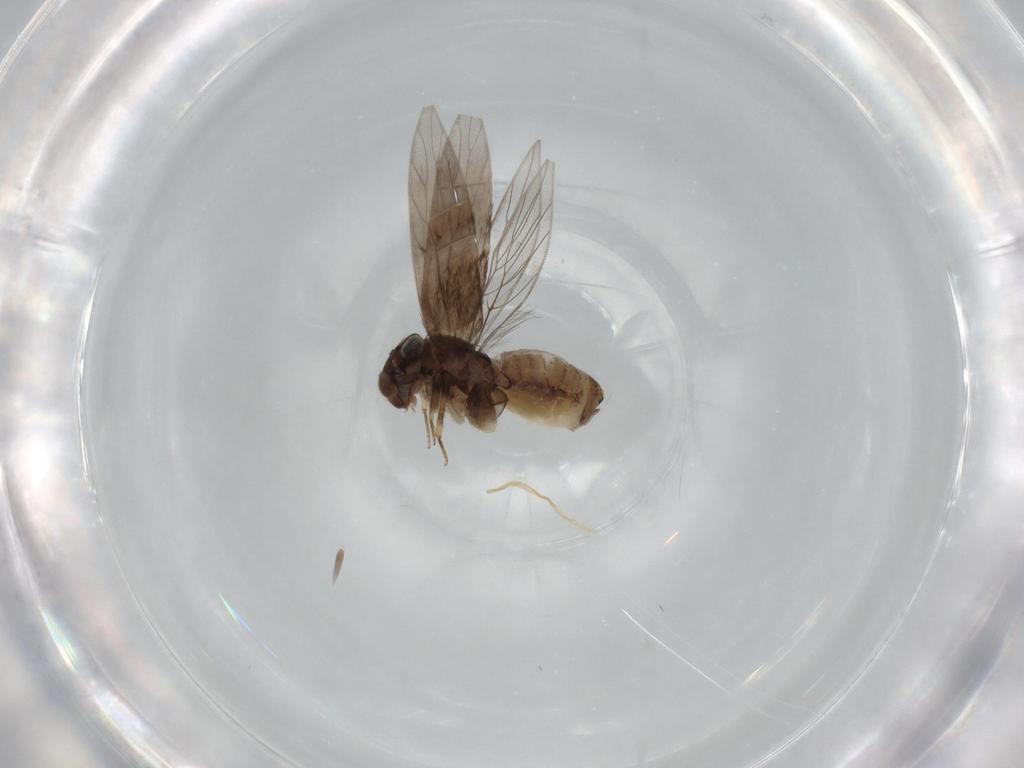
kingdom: Animalia
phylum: Arthropoda
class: Insecta
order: Psocodea
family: Lepidopsocidae
